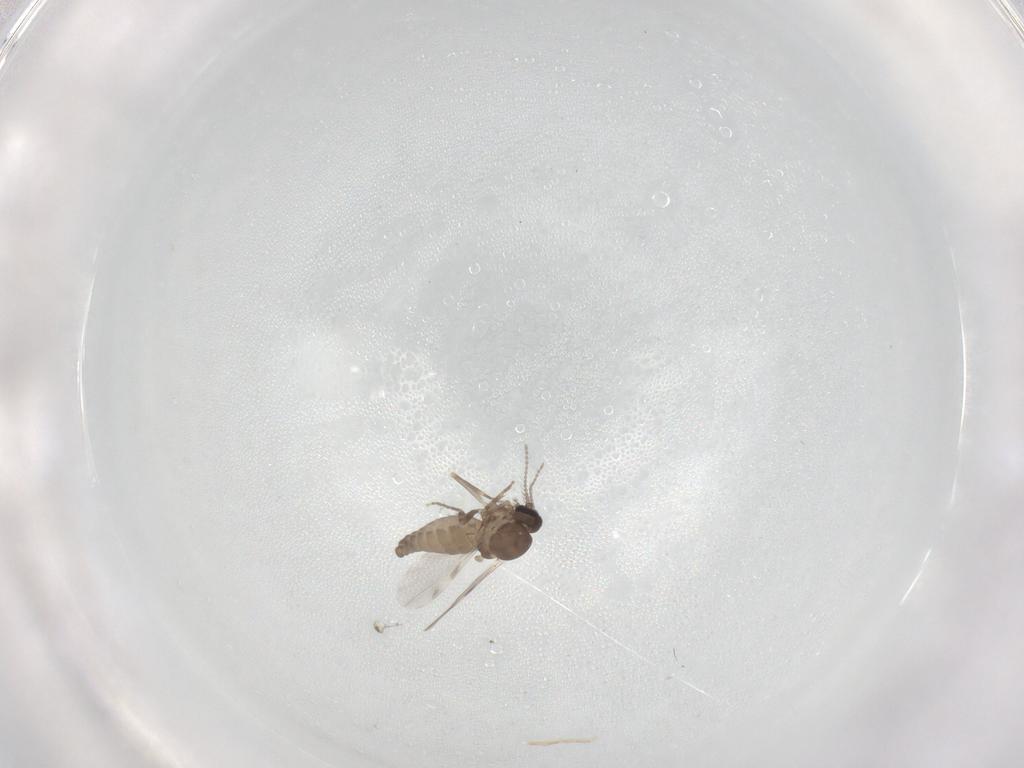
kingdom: Animalia
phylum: Arthropoda
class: Insecta
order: Diptera
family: Ceratopogonidae
